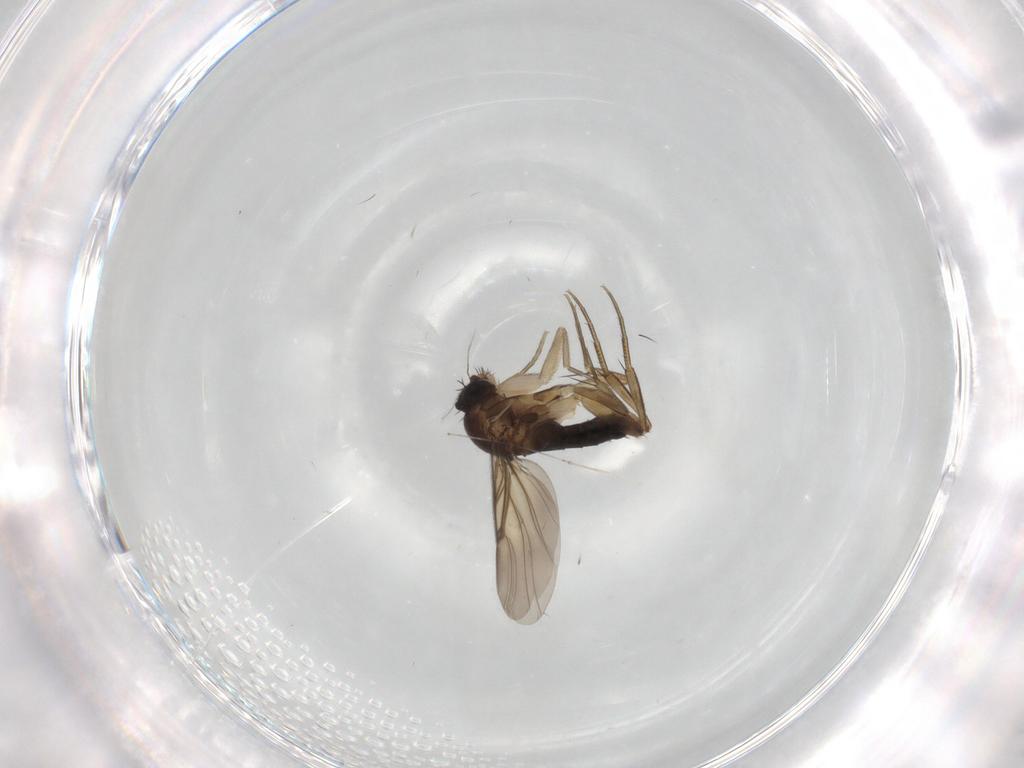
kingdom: Animalia
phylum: Arthropoda
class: Insecta
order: Diptera
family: Phoridae
